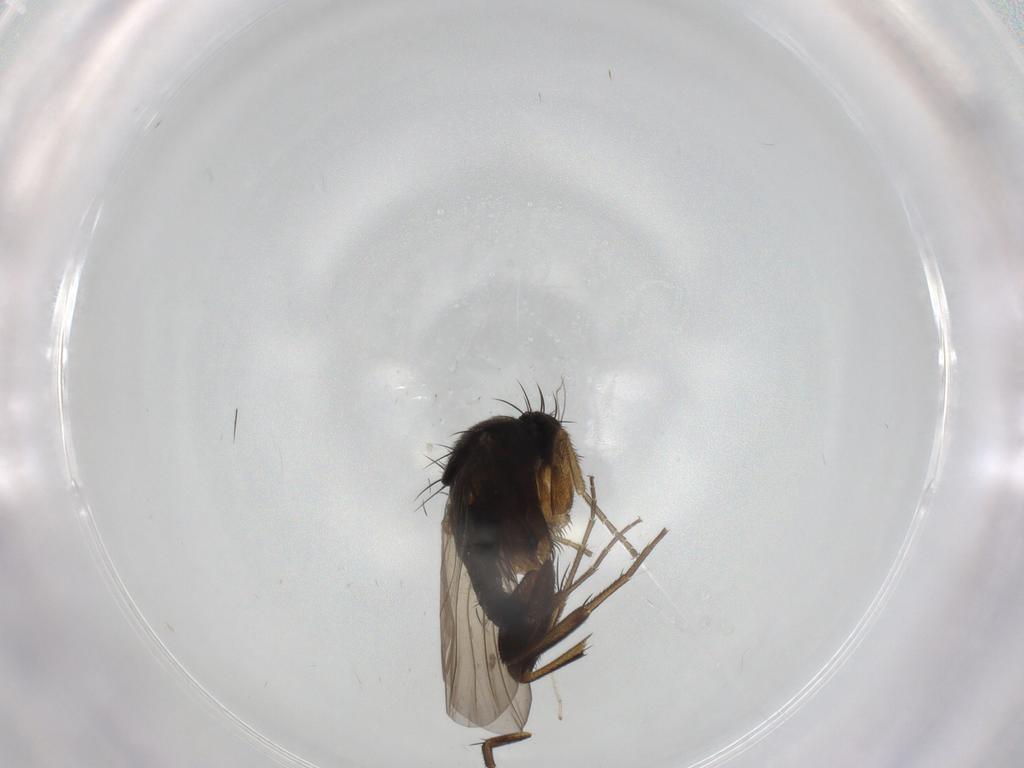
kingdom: Animalia
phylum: Arthropoda
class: Insecta
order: Diptera
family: Phoridae
